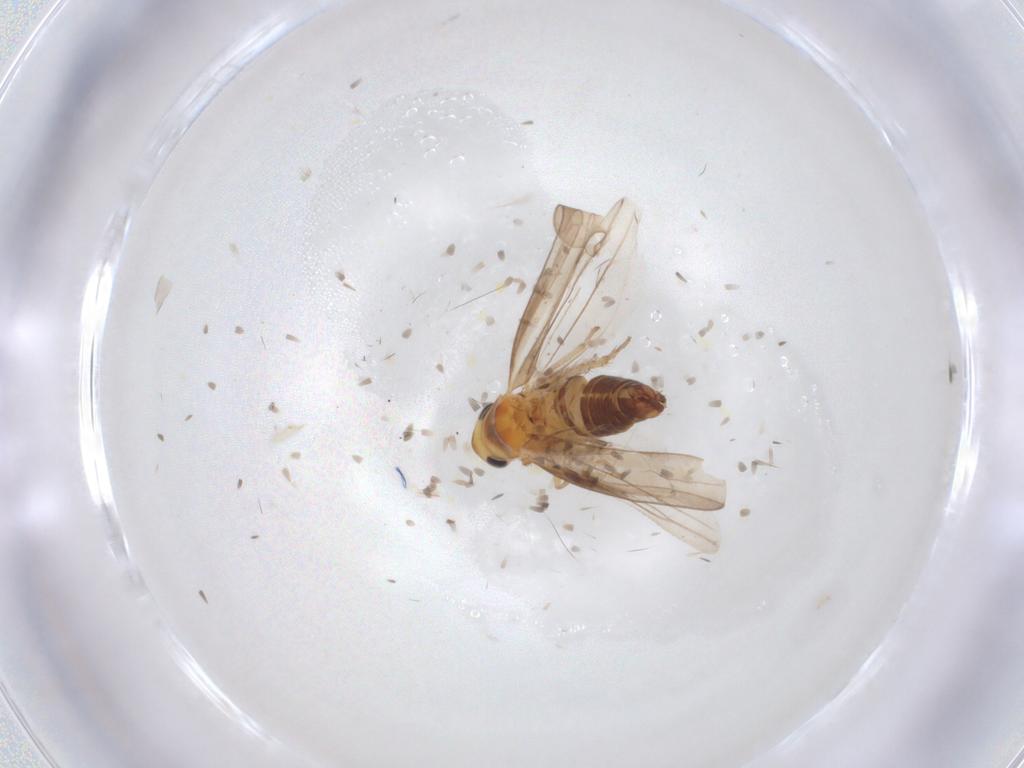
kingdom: Animalia
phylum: Arthropoda
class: Insecta
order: Hemiptera
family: Cicadellidae
